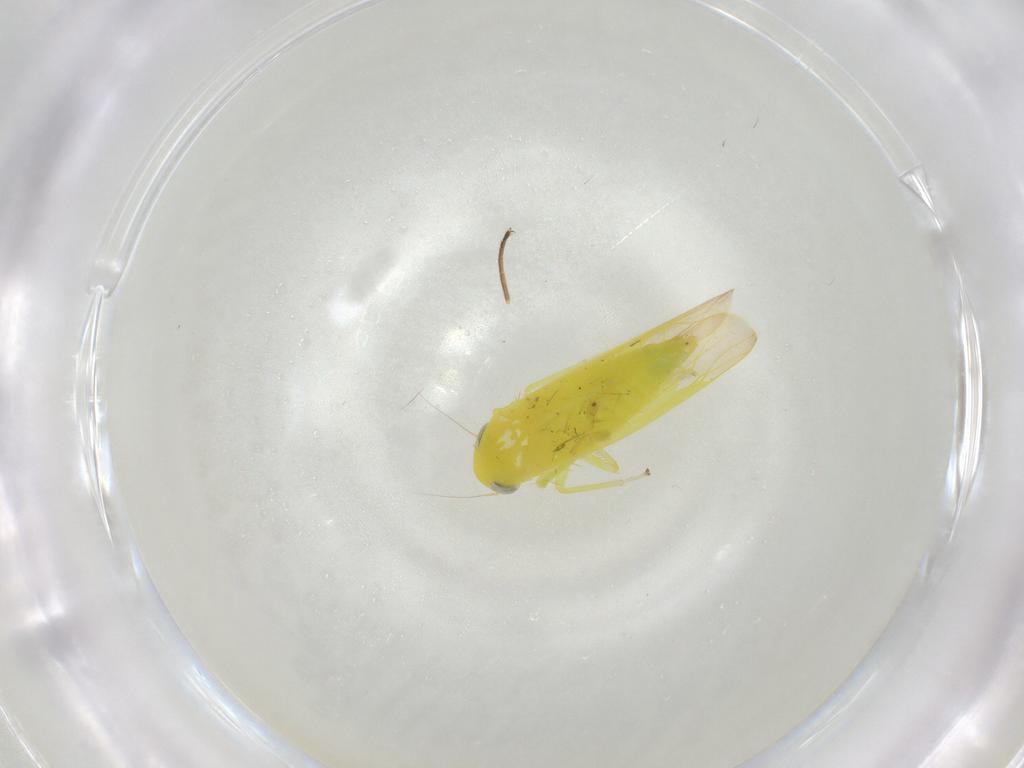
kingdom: Animalia
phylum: Arthropoda
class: Insecta
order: Hemiptera
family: Cicadellidae
